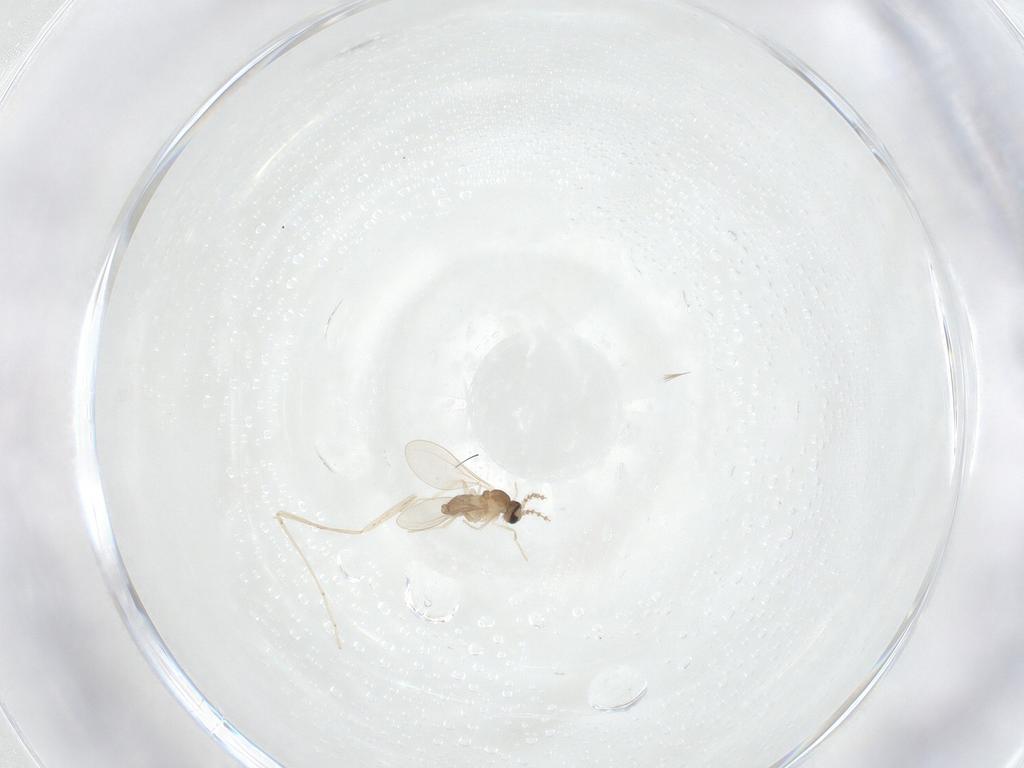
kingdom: Animalia
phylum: Arthropoda
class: Insecta
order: Diptera
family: Cecidomyiidae
